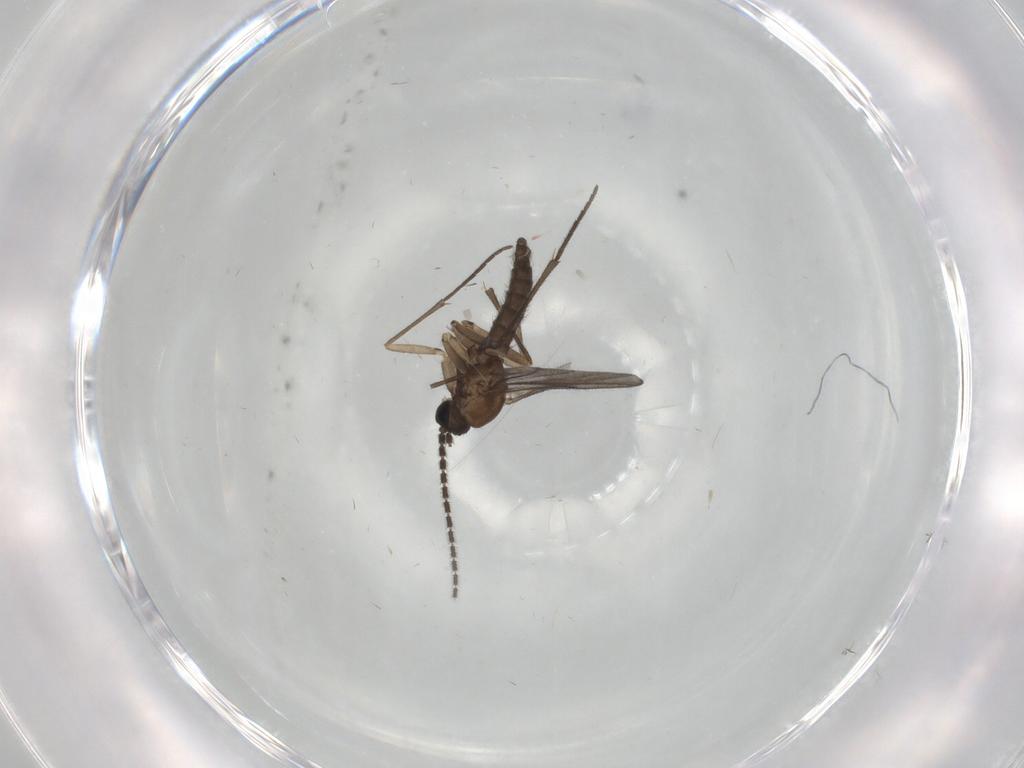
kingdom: Animalia
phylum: Arthropoda
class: Insecta
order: Diptera
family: Sciaridae
